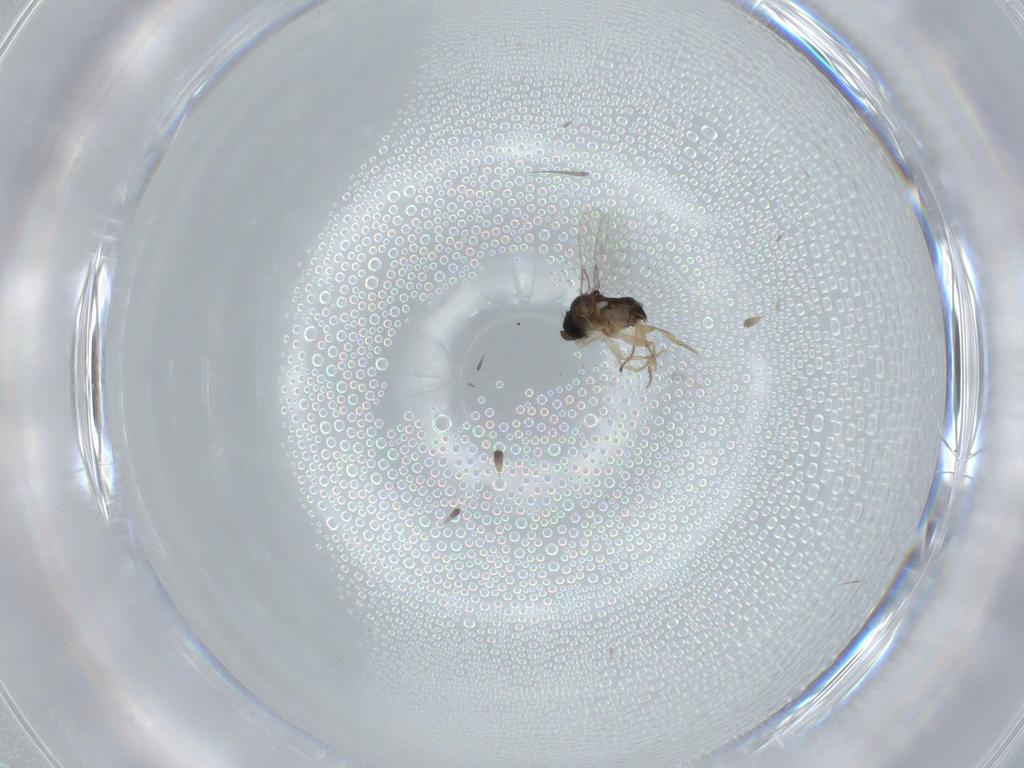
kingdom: Animalia
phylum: Arthropoda
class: Insecta
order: Diptera
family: Phoridae
